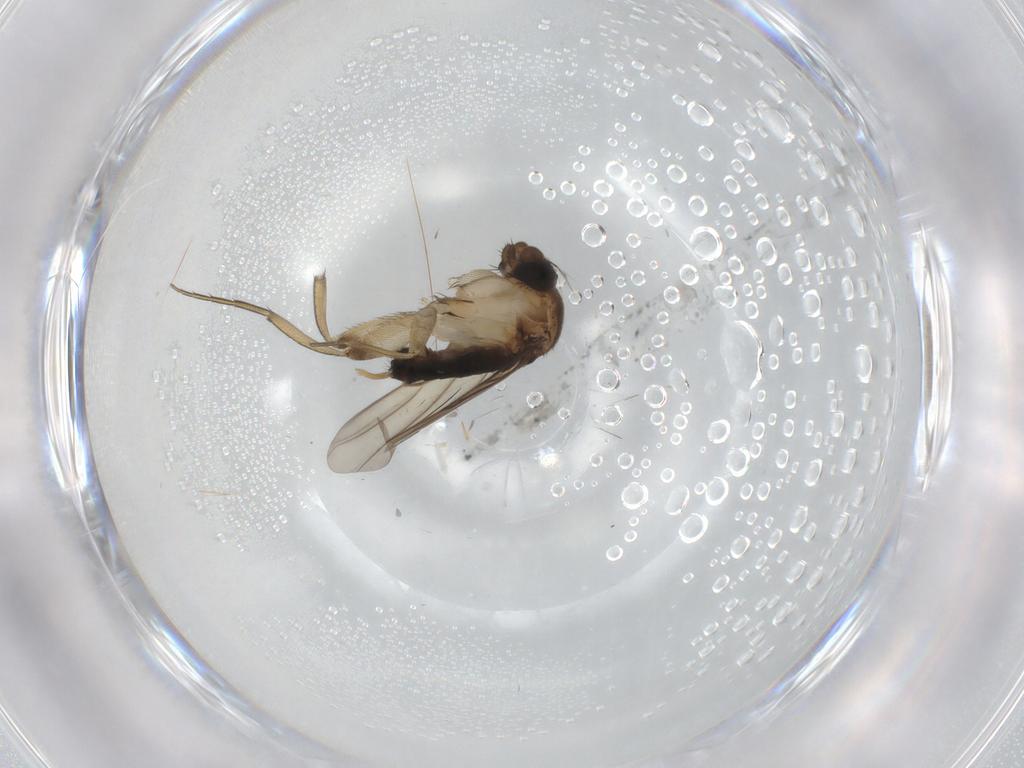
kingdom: Animalia
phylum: Arthropoda
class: Insecta
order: Diptera
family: Phoridae
